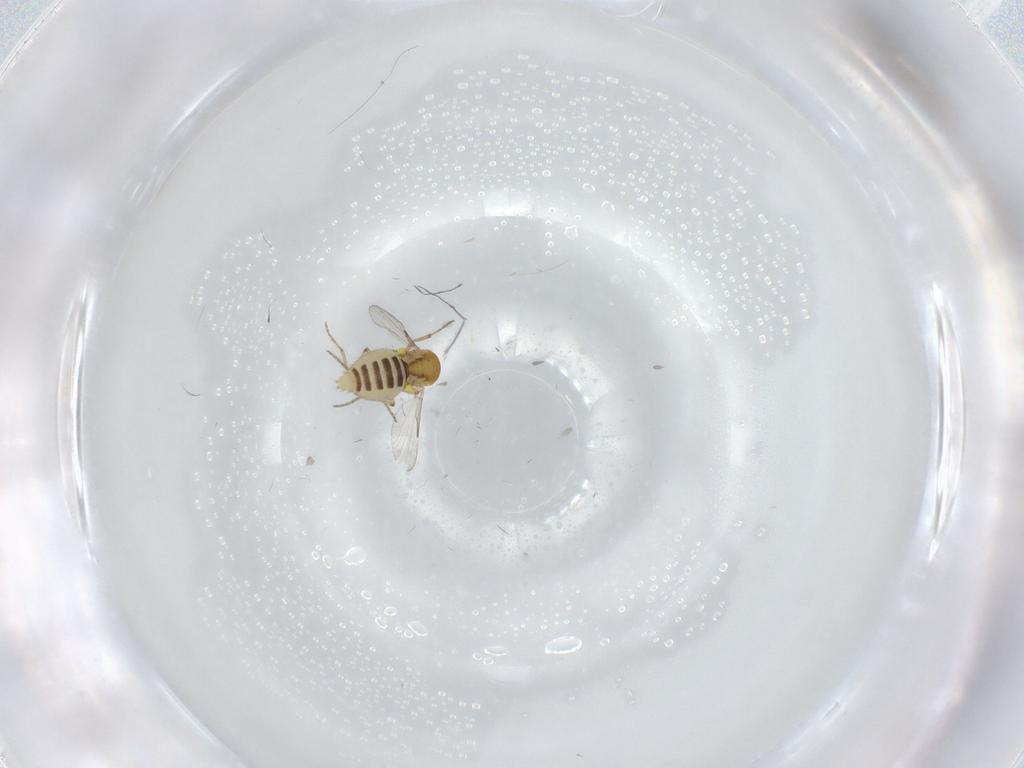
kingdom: Animalia
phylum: Arthropoda
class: Insecta
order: Diptera
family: Ceratopogonidae
